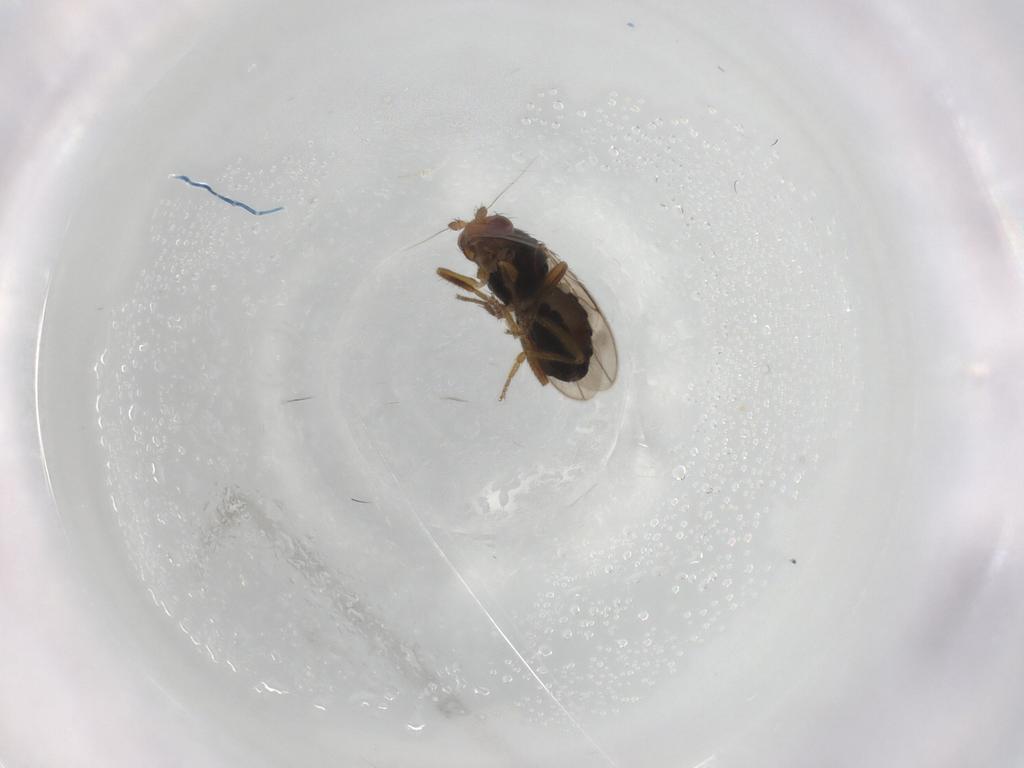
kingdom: Animalia
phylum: Arthropoda
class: Insecta
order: Diptera
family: Sphaeroceridae
